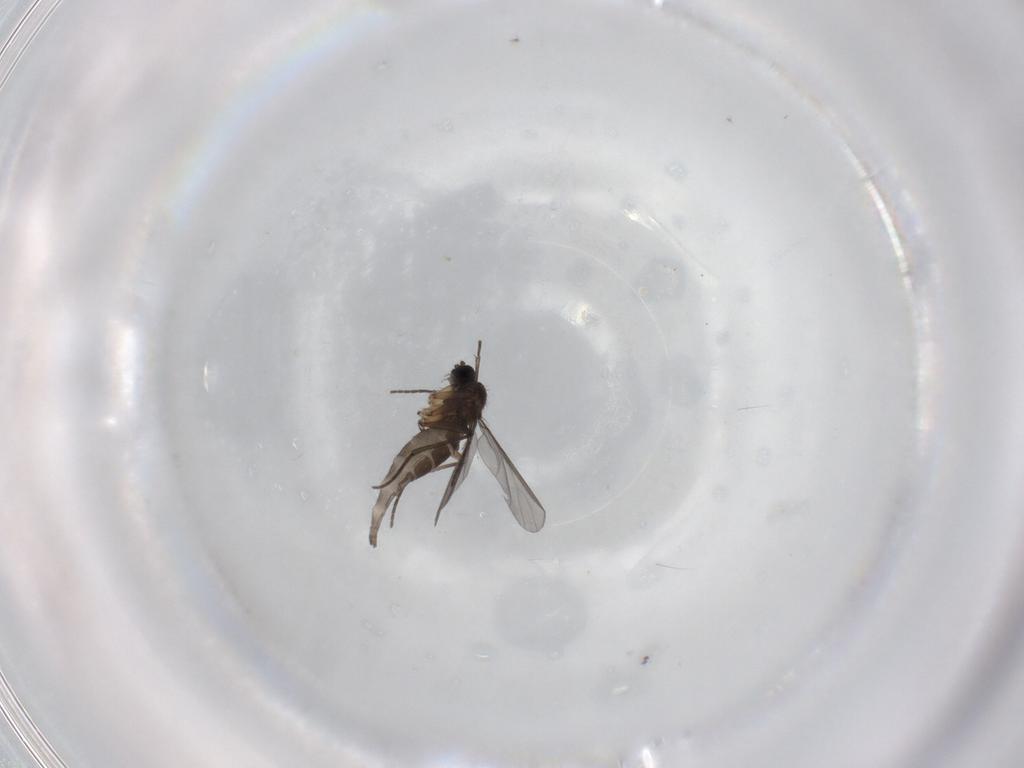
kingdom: Animalia
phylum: Arthropoda
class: Insecta
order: Diptera
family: Sciaridae
